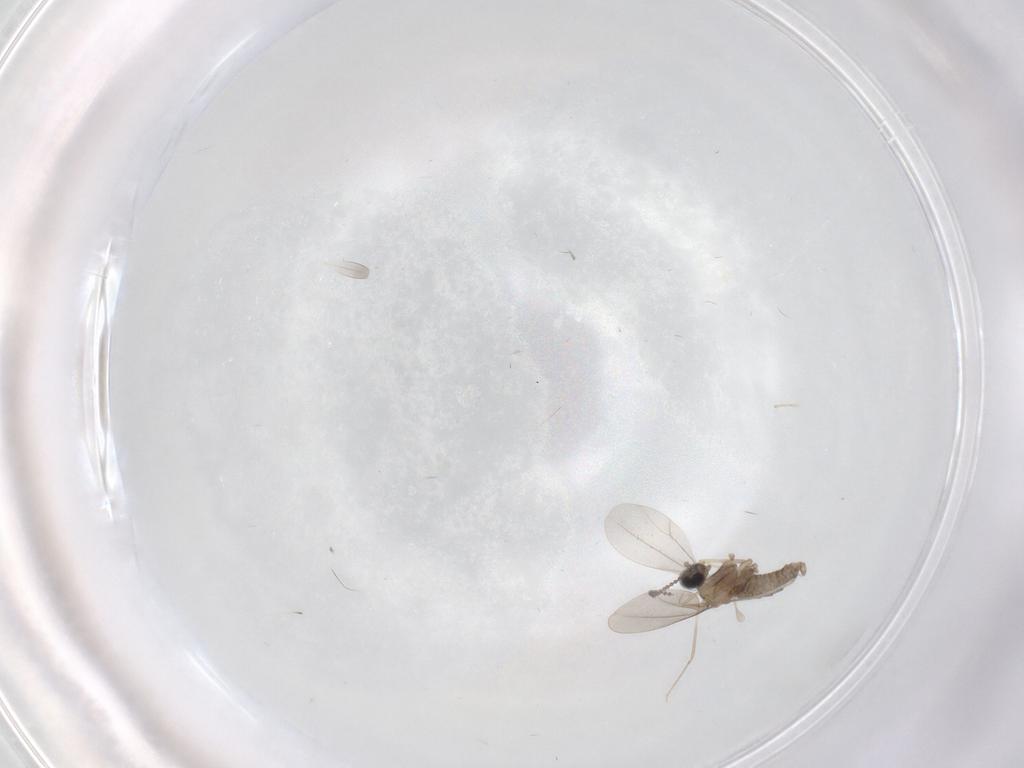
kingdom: Animalia
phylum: Arthropoda
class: Insecta
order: Diptera
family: Cecidomyiidae
